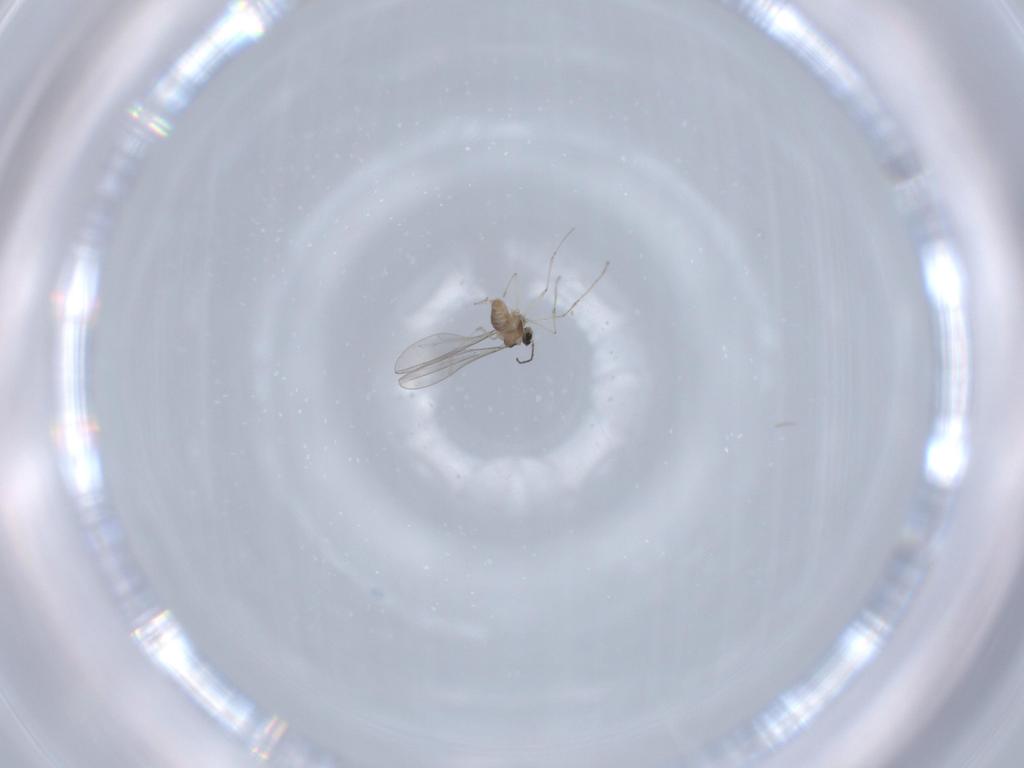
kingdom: Animalia
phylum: Arthropoda
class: Insecta
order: Diptera
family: Cecidomyiidae
